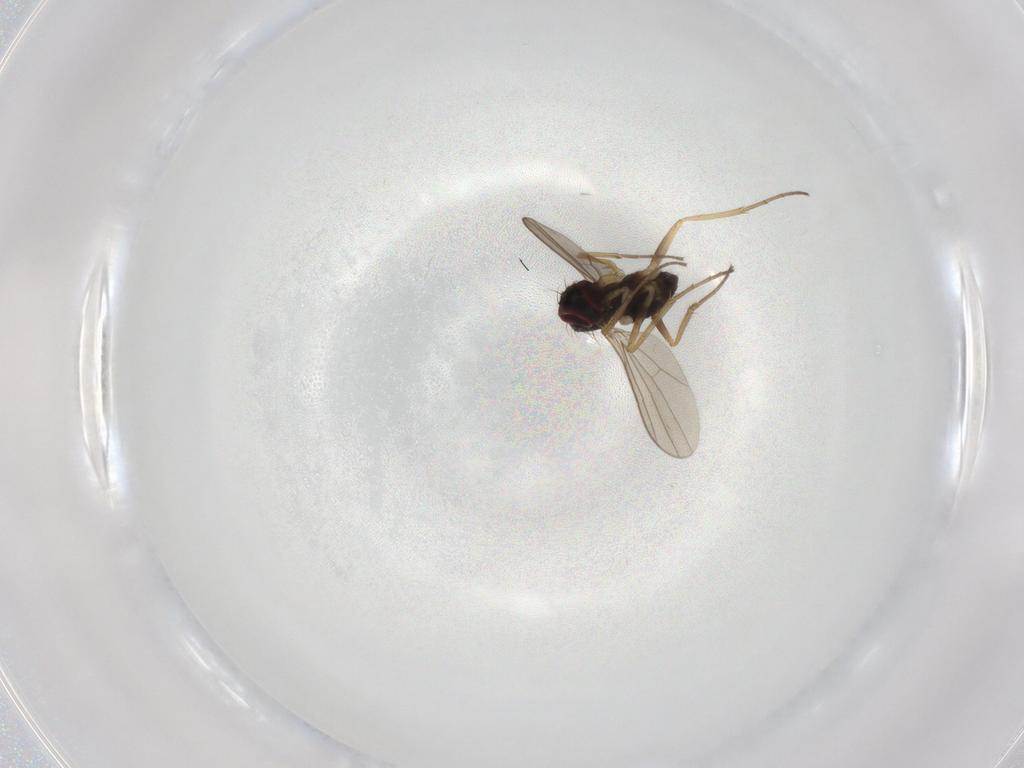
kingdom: Animalia
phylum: Arthropoda
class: Insecta
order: Diptera
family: Dolichopodidae
